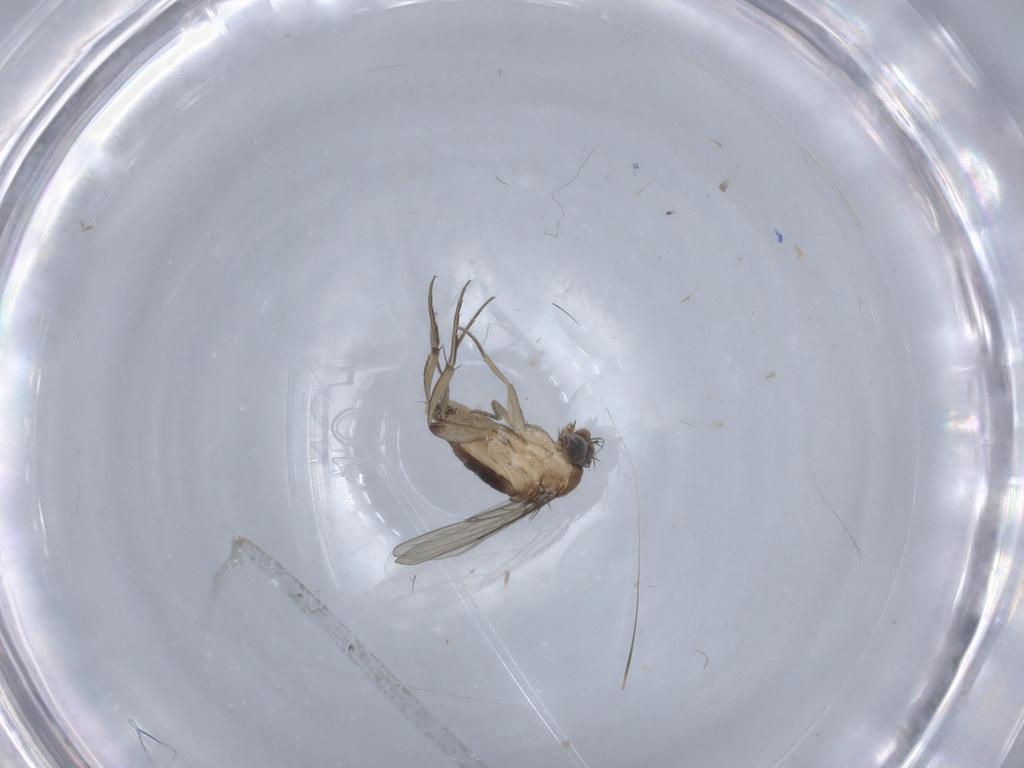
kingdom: Animalia
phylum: Arthropoda
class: Insecta
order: Diptera
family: Phoridae
